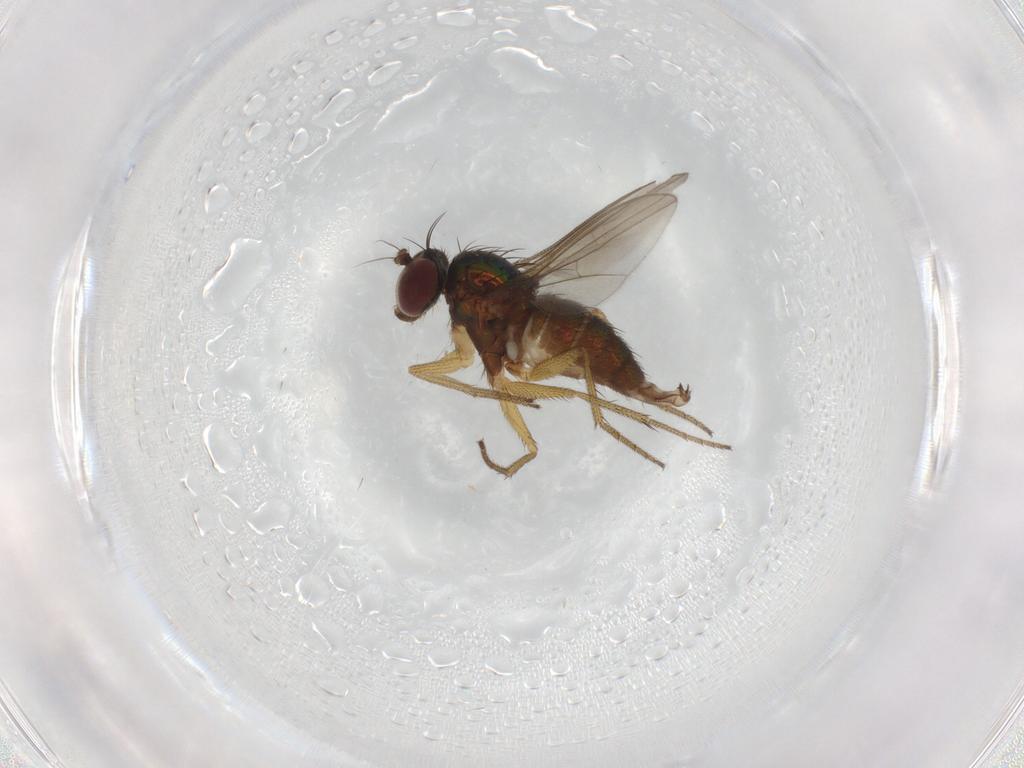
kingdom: Animalia
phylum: Arthropoda
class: Insecta
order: Diptera
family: Dolichopodidae
